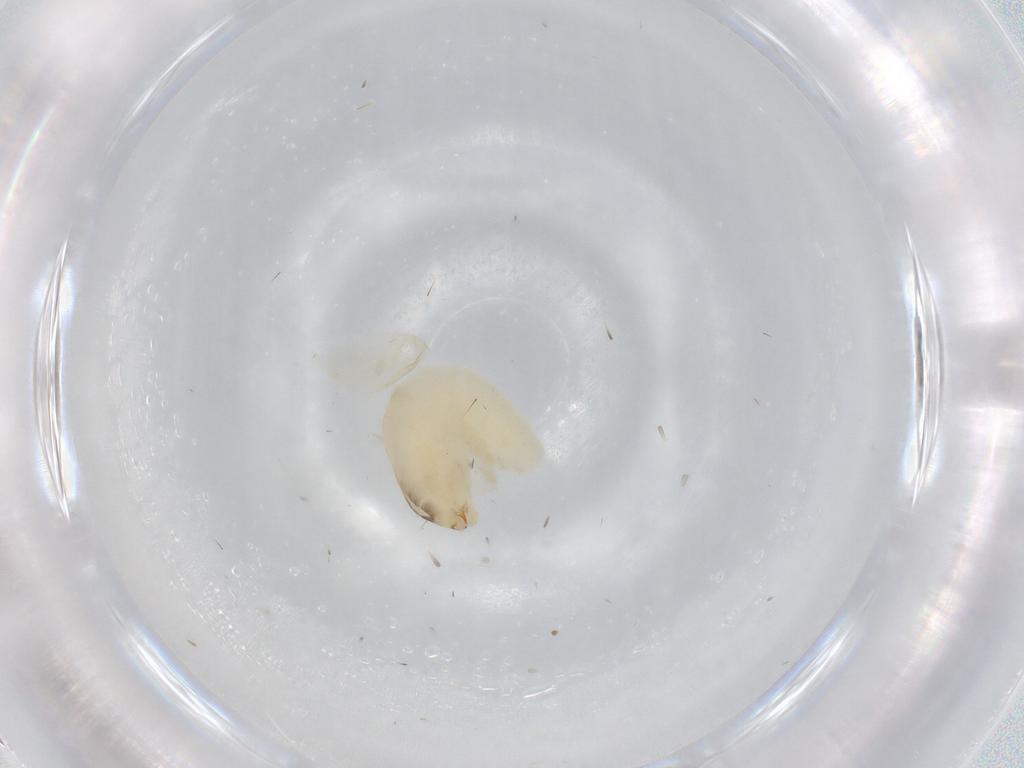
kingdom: Animalia
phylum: Arthropoda
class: Insecta
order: Hymenoptera
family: Dryinidae
